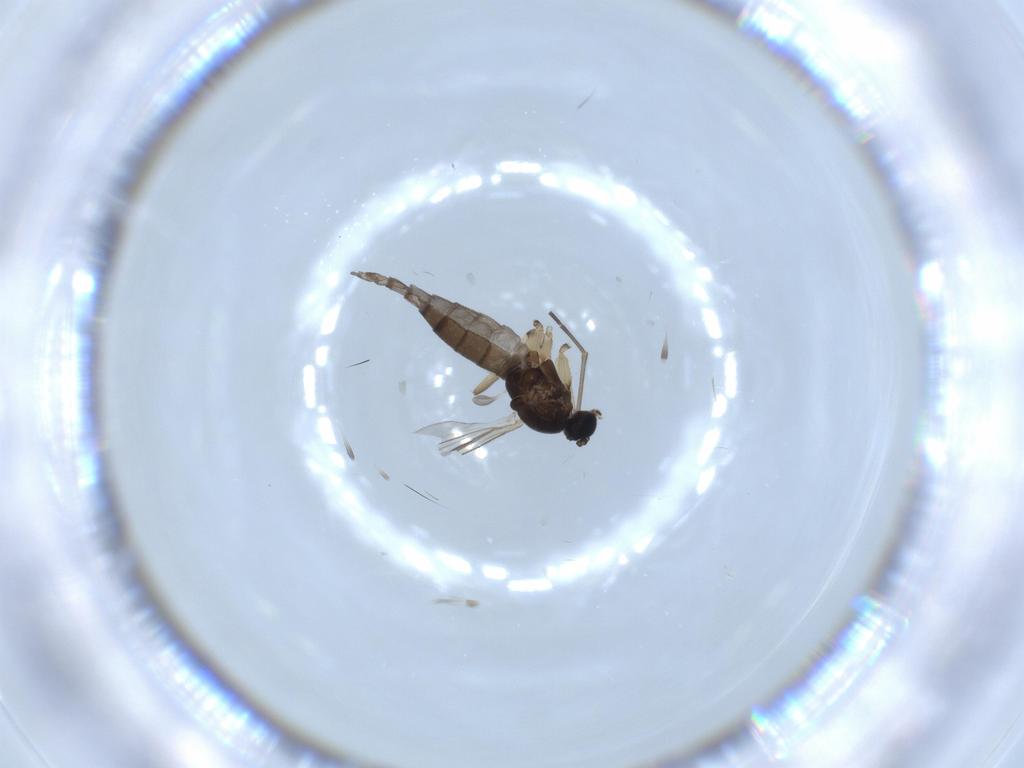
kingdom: Animalia
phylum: Arthropoda
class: Insecta
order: Diptera
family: Sciaridae
